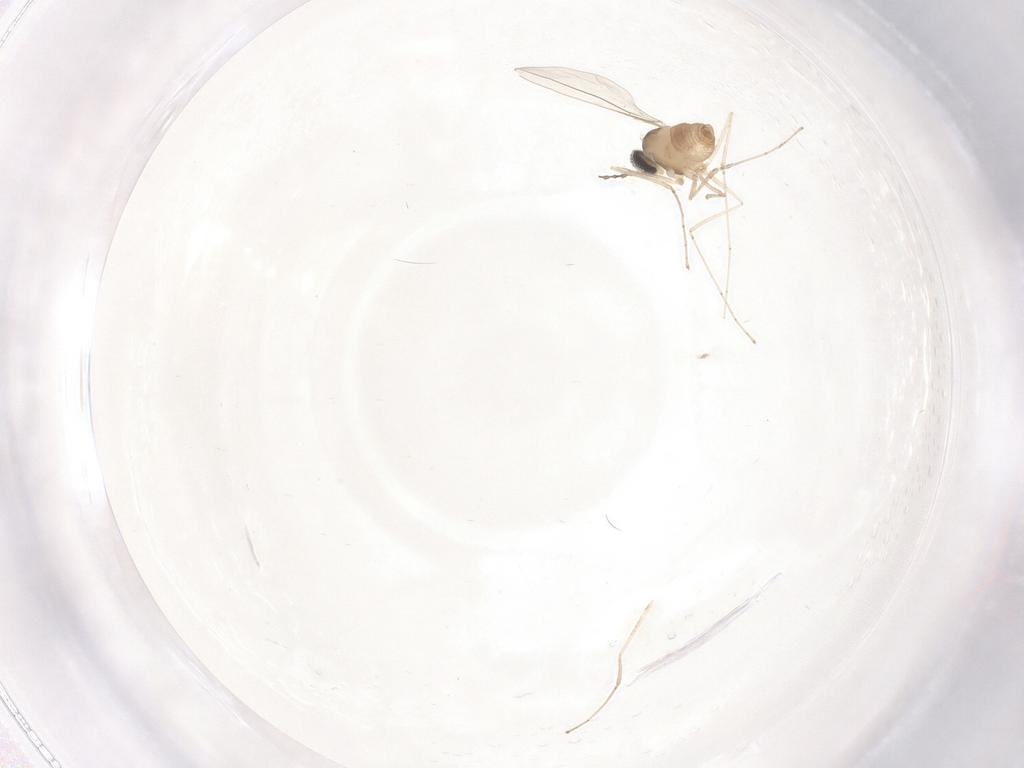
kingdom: Animalia
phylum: Arthropoda
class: Insecta
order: Diptera
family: Cecidomyiidae
